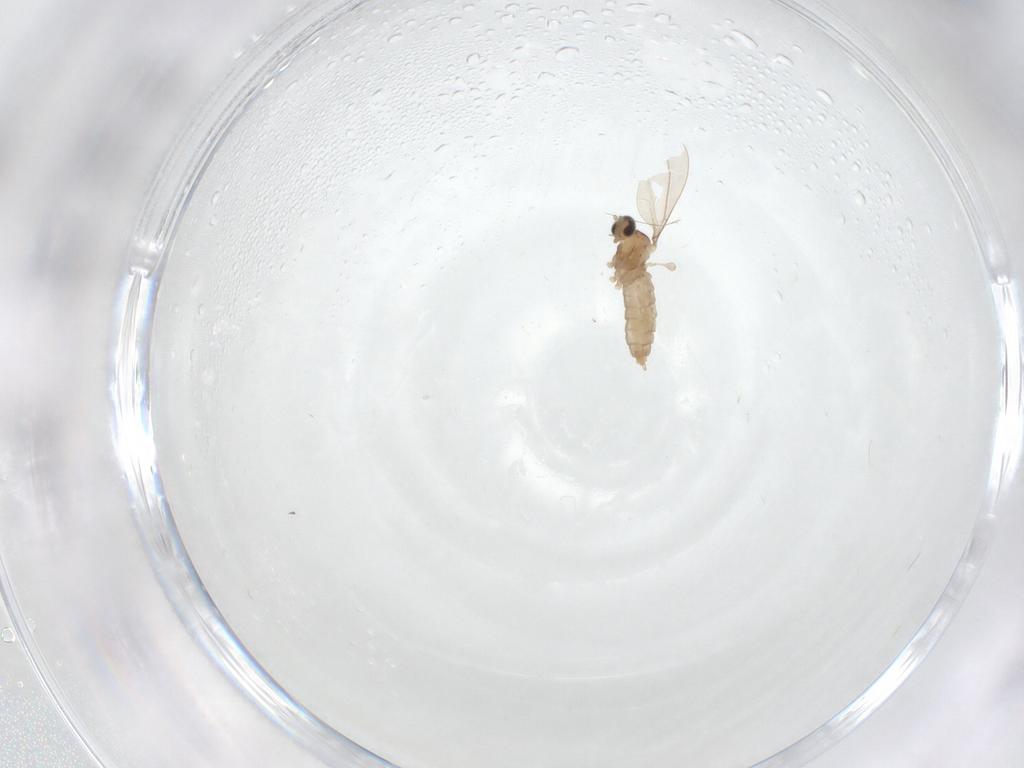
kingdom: Animalia
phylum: Arthropoda
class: Insecta
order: Diptera
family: Cecidomyiidae
